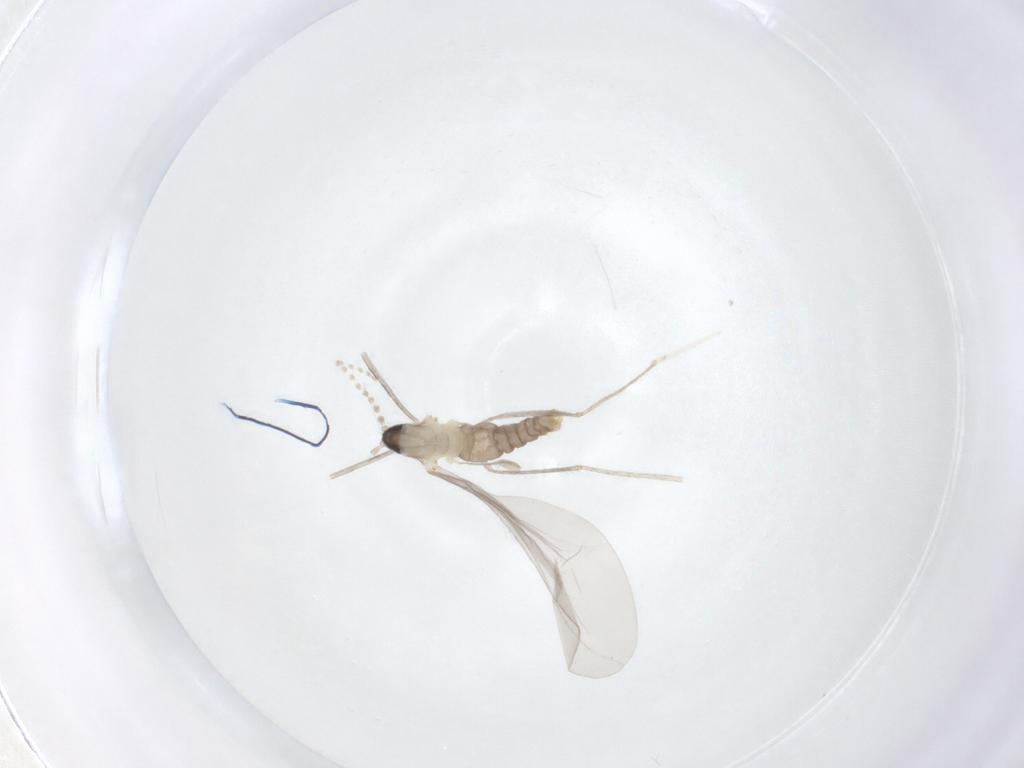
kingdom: Animalia
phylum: Arthropoda
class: Insecta
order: Diptera
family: Cecidomyiidae
